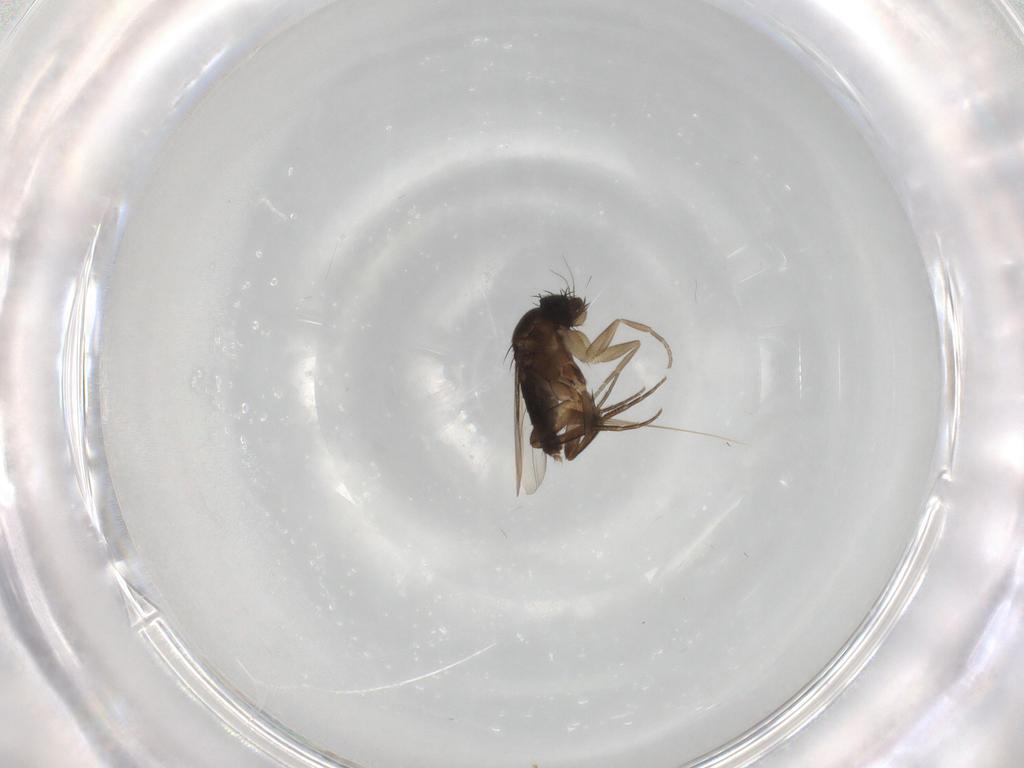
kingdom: Animalia
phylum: Arthropoda
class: Insecta
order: Diptera
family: Phoridae
